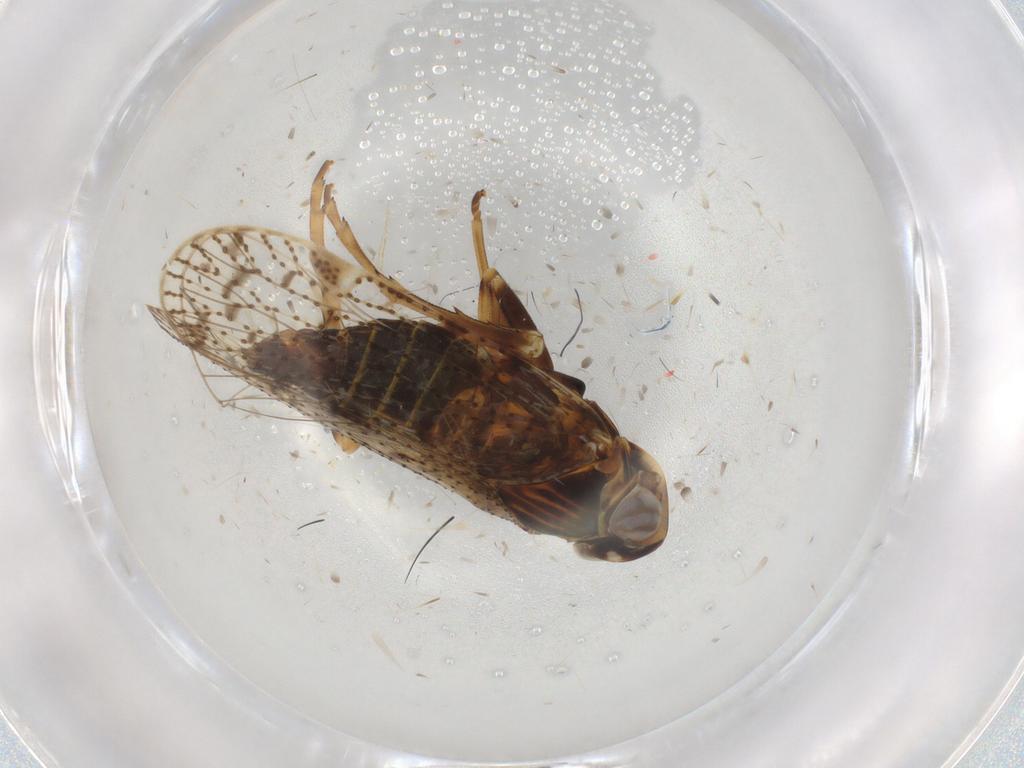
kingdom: Animalia
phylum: Arthropoda
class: Insecta
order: Hemiptera
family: Cixiidae
